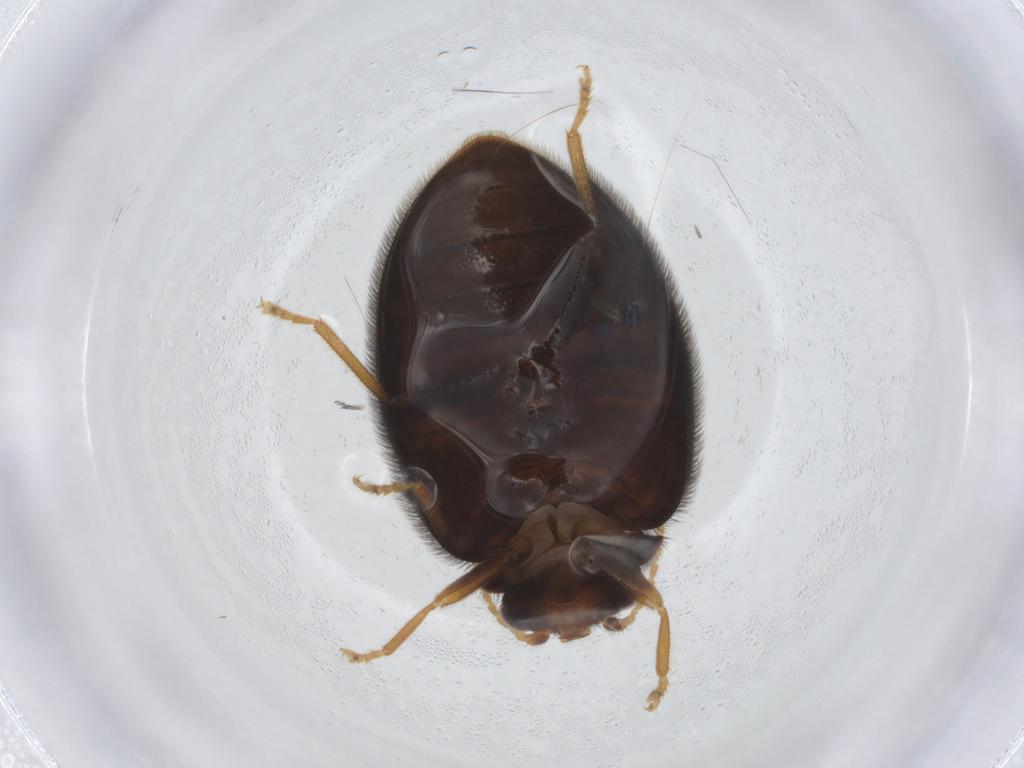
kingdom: Animalia
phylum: Arthropoda
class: Insecta
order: Coleoptera
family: Scirtidae
